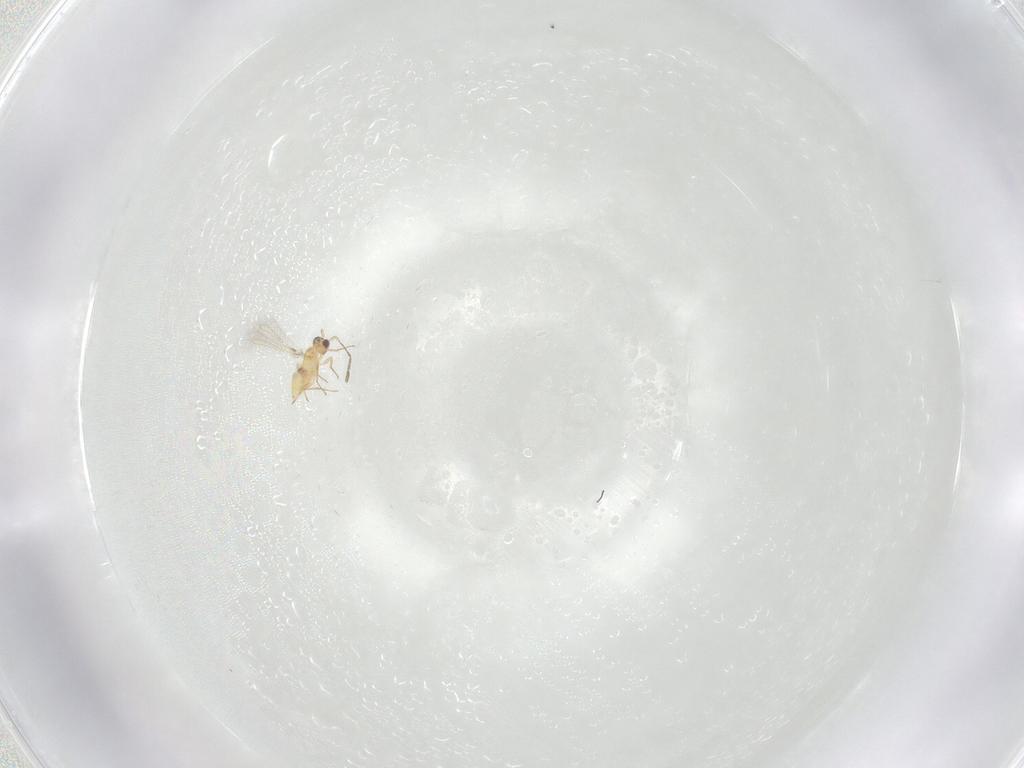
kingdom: Animalia
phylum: Arthropoda
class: Insecta
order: Hymenoptera
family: Mymaridae
